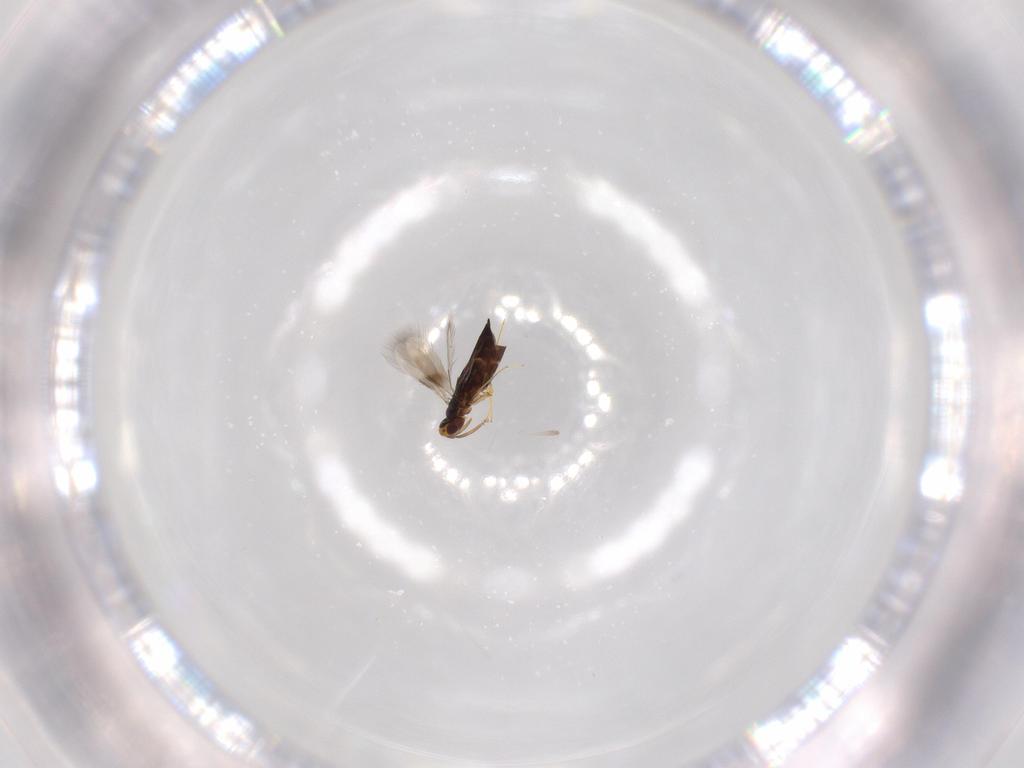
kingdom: Animalia
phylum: Arthropoda
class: Insecta
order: Hymenoptera
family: Signiphoridae
